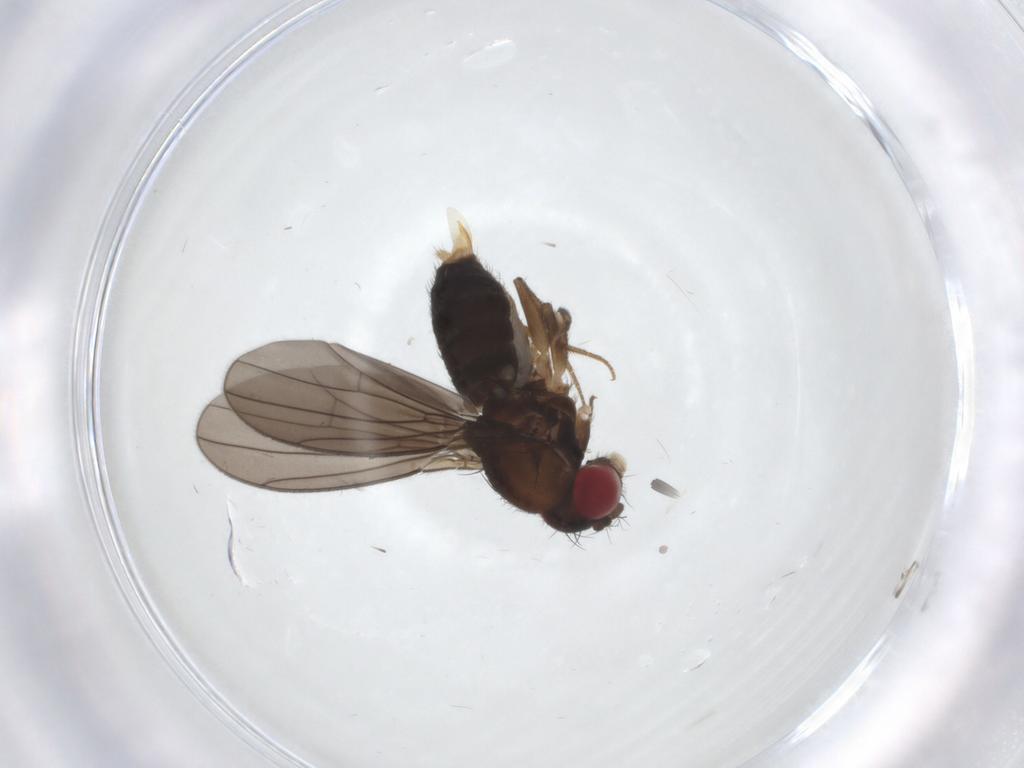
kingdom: Animalia
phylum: Arthropoda
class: Insecta
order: Diptera
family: Drosophilidae
